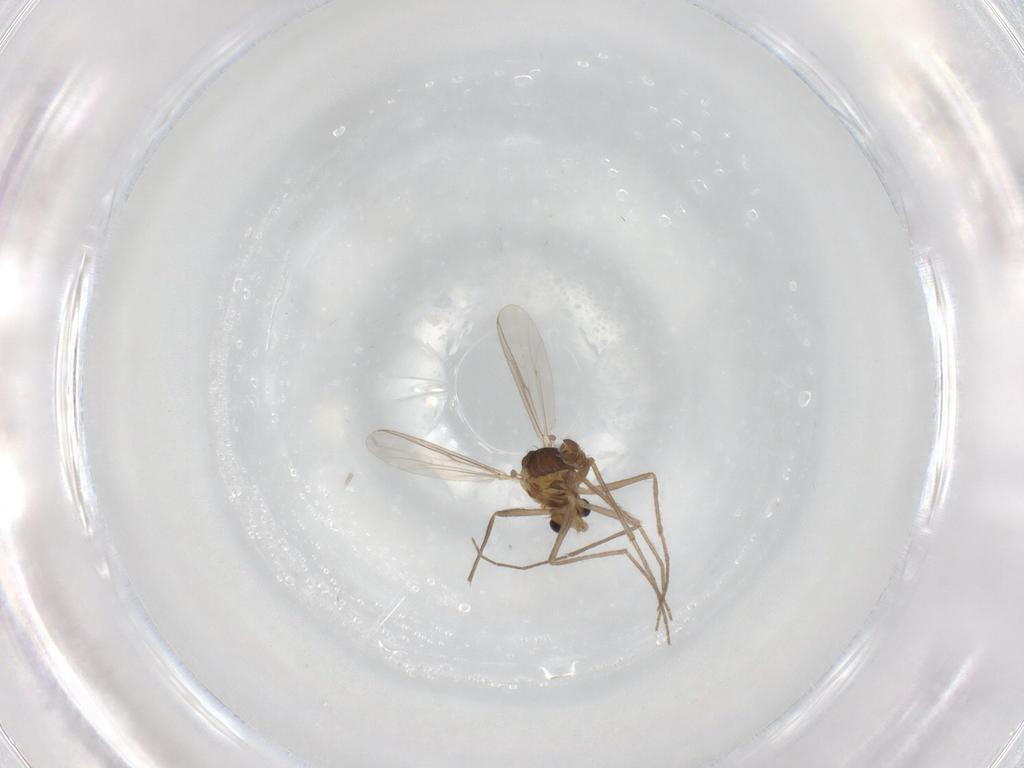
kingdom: Animalia
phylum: Arthropoda
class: Insecta
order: Diptera
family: Chironomidae
